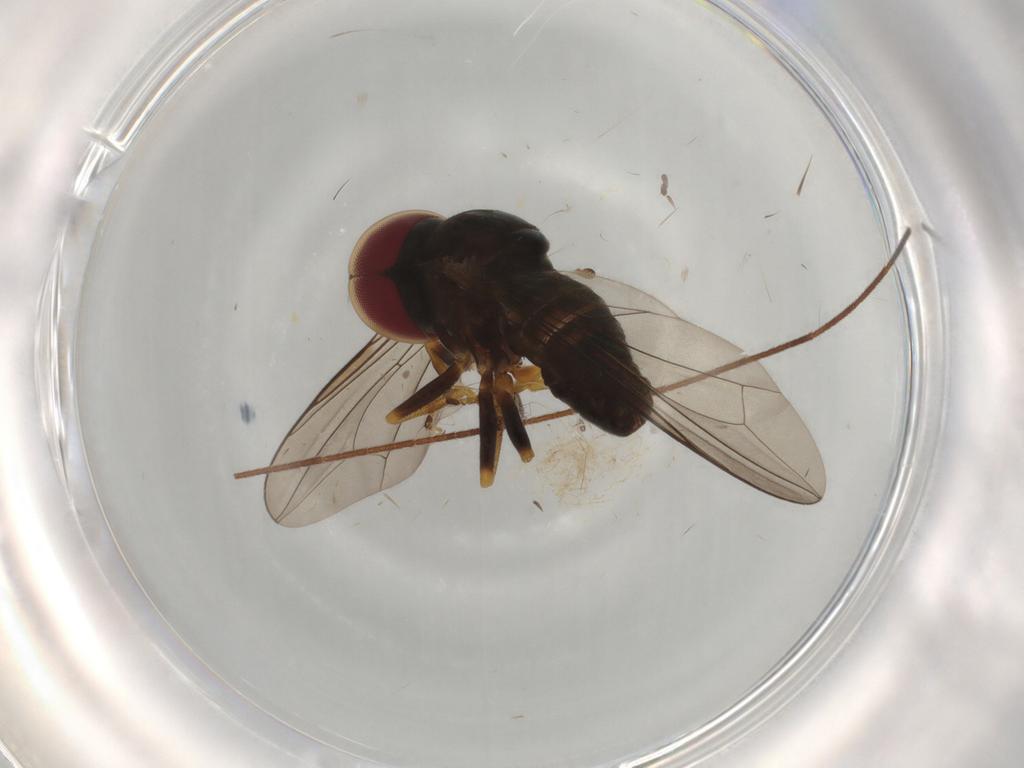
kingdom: Animalia
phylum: Arthropoda
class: Insecta
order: Diptera
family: Pipunculidae
